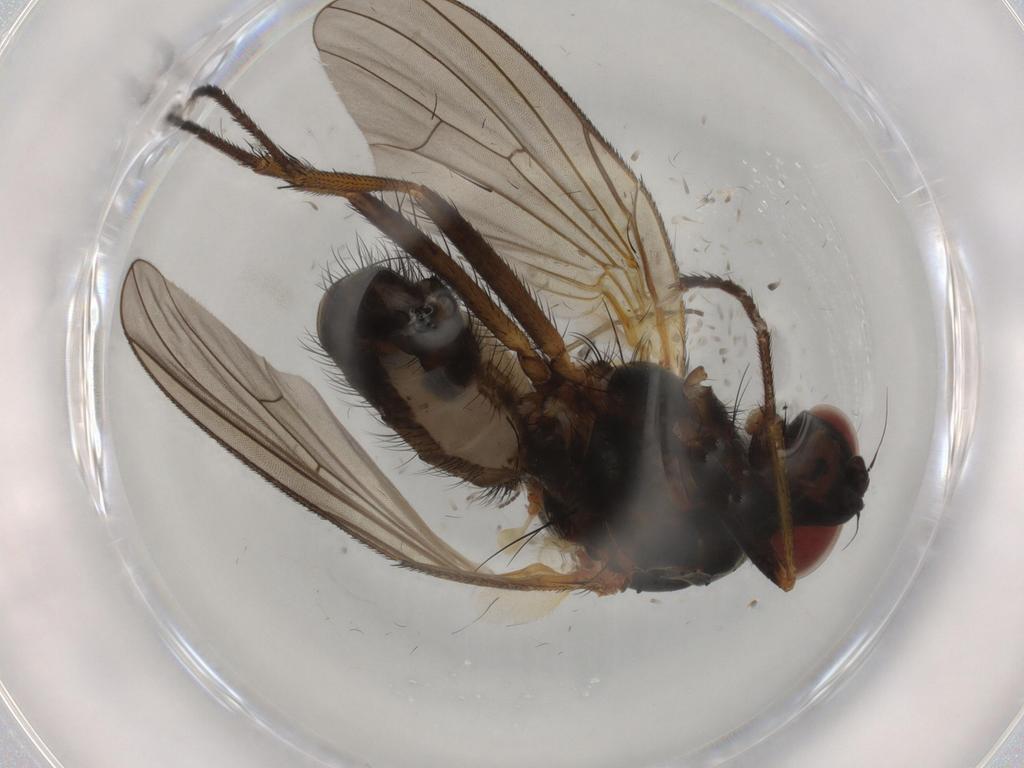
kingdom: Animalia
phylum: Arthropoda
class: Insecta
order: Diptera
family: Anthomyiidae
